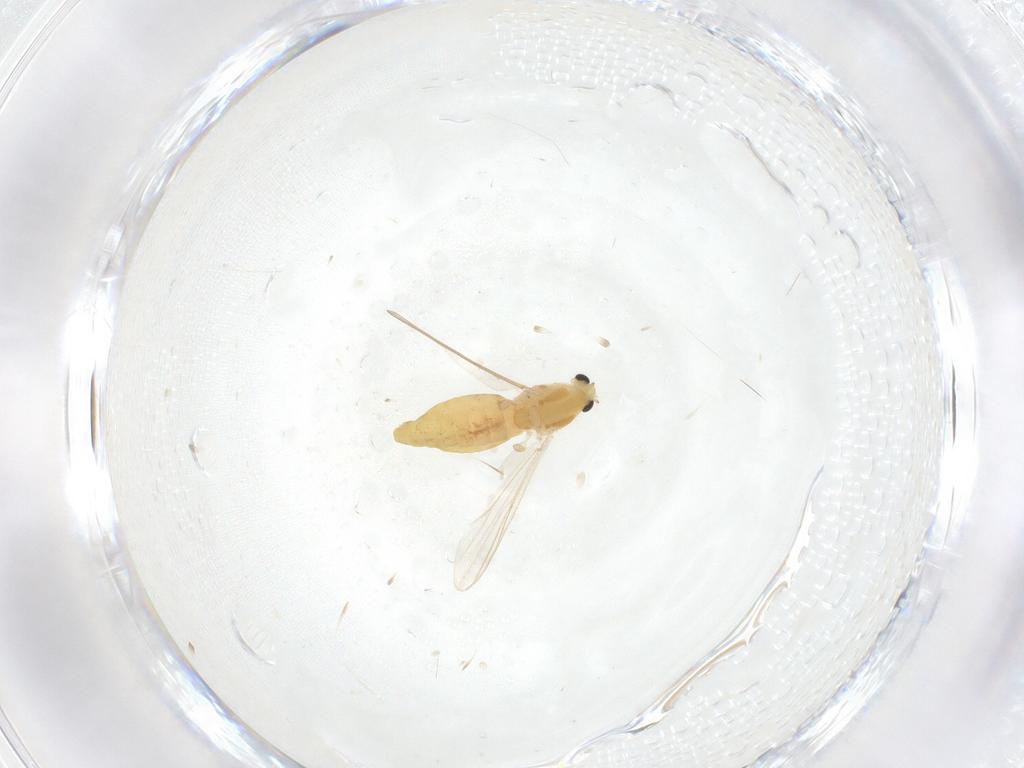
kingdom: Animalia
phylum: Arthropoda
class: Insecta
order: Diptera
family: Chironomidae
